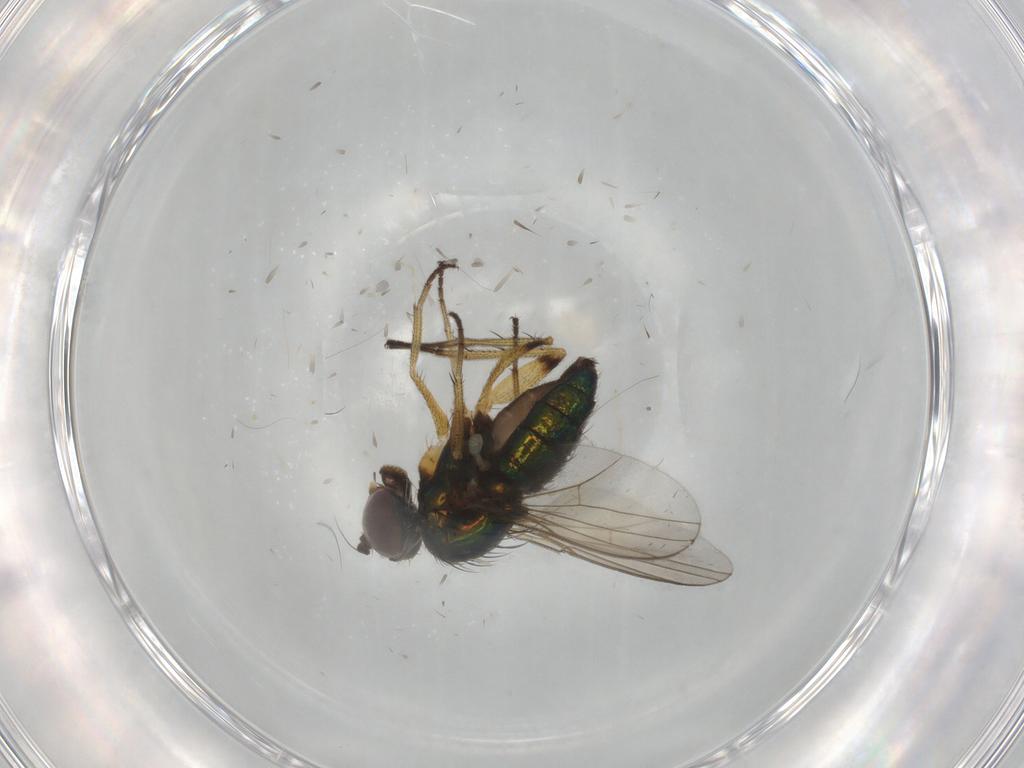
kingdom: Animalia
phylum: Arthropoda
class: Insecta
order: Diptera
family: Dolichopodidae
